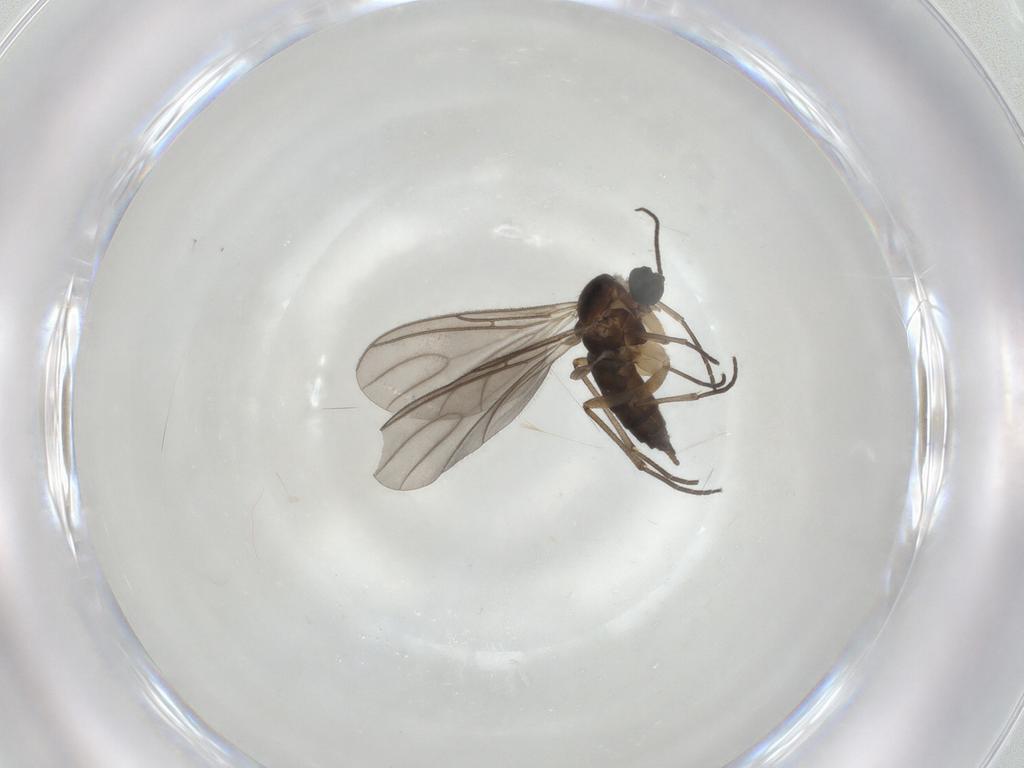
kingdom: Animalia
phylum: Arthropoda
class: Insecta
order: Diptera
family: Sciaridae
